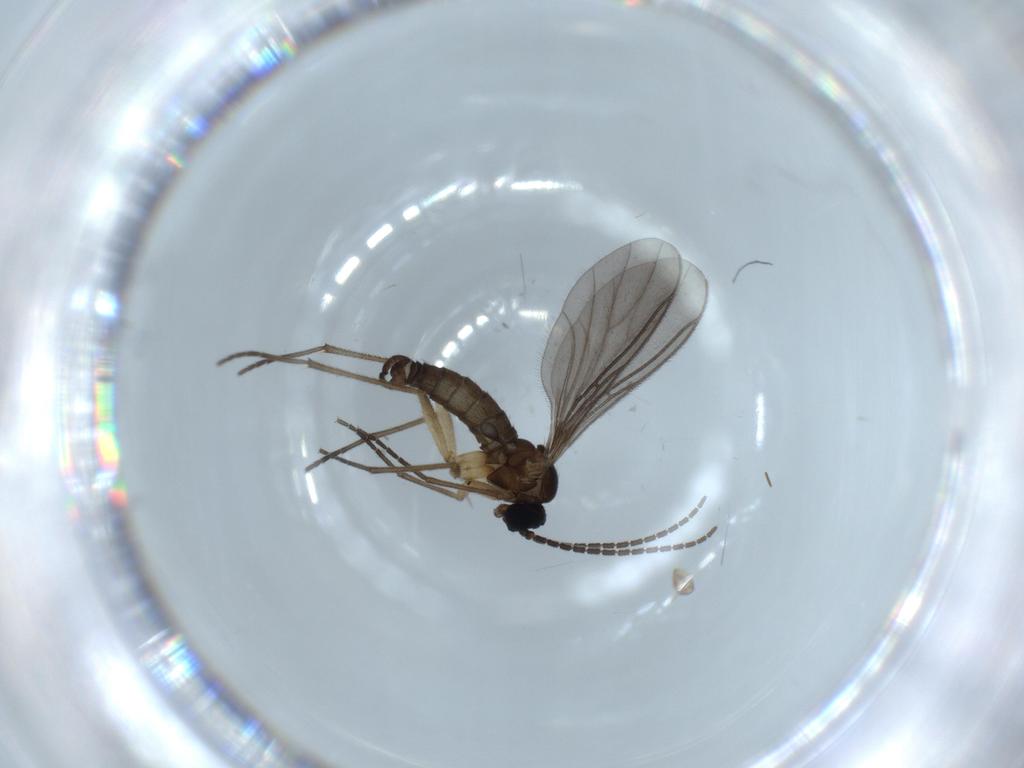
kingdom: Animalia
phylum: Arthropoda
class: Insecta
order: Diptera
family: Sciaridae
